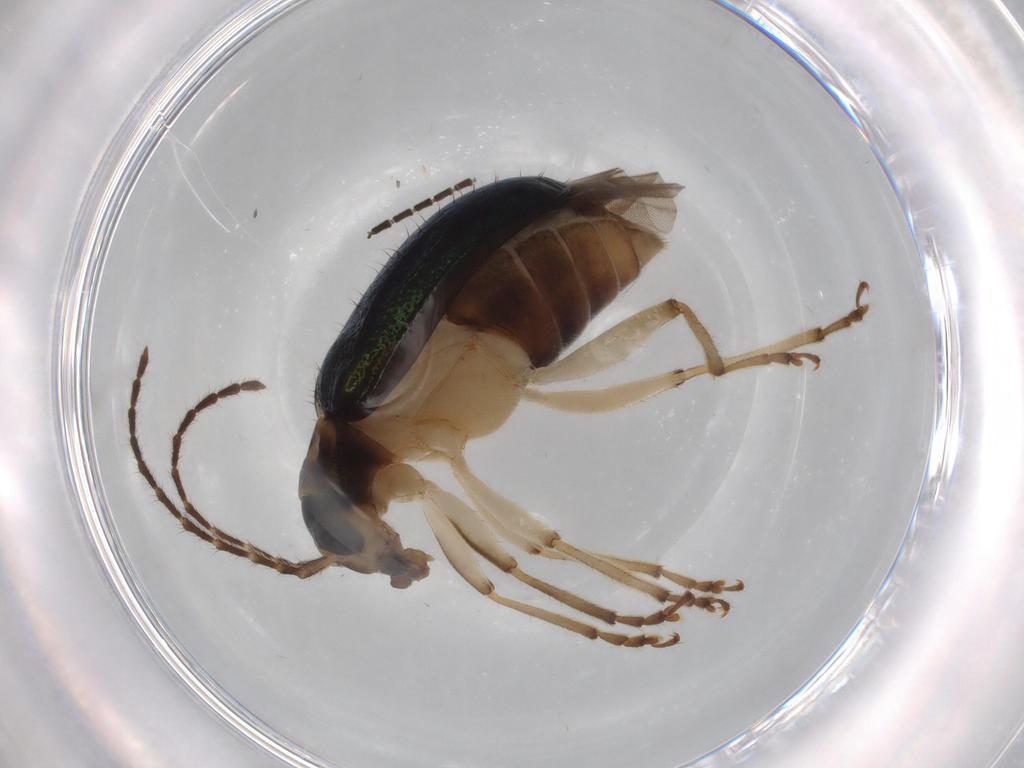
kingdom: Animalia
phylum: Arthropoda
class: Insecta
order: Coleoptera
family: Chrysomelidae
